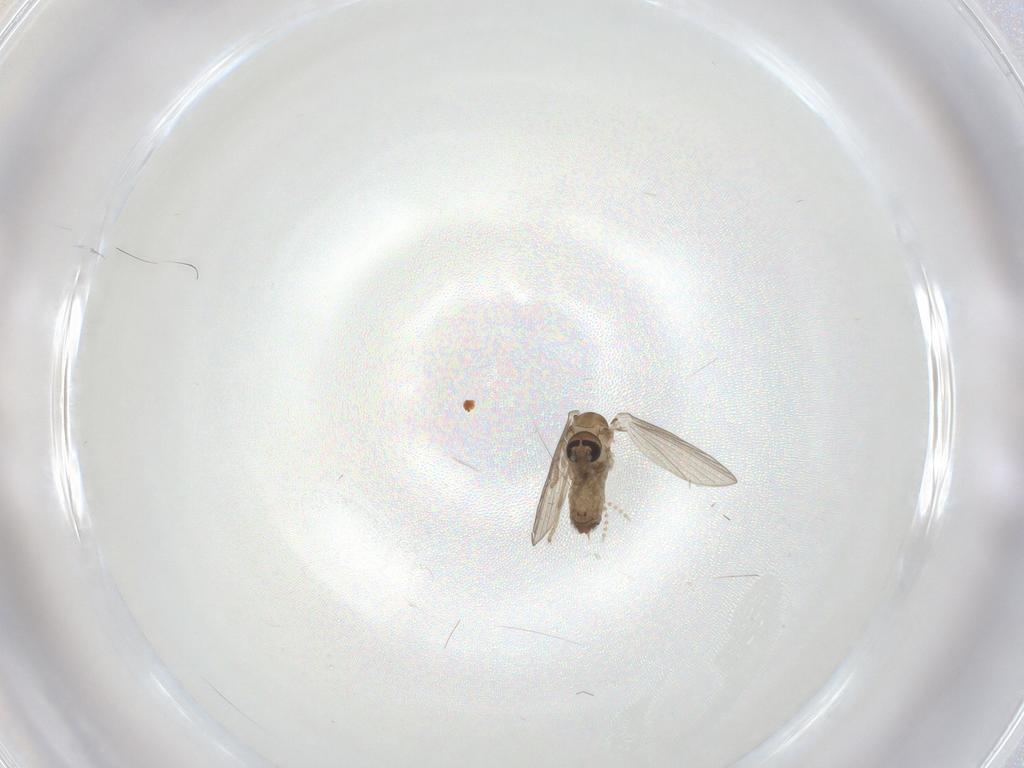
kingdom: Animalia
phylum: Arthropoda
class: Insecta
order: Diptera
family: Psychodidae
